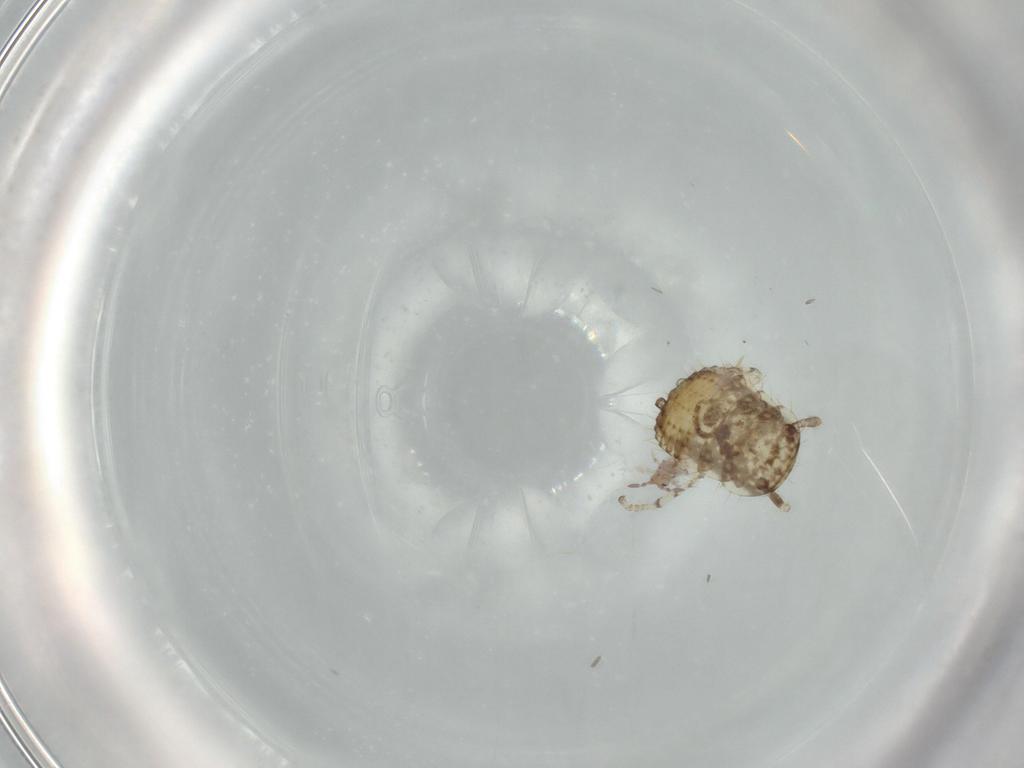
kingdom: Animalia
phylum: Arthropoda
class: Insecta
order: Blattodea
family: Ectobiidae
